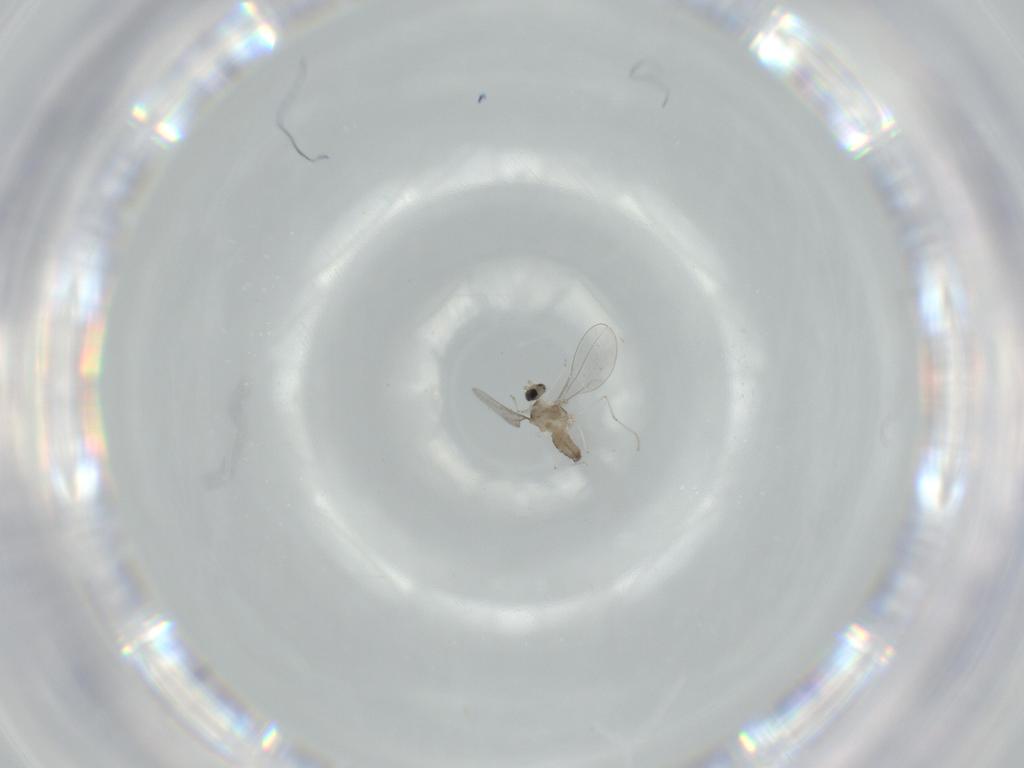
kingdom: Animalia
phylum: Arthropoda
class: Insecta
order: Diptera
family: Cecidomyiidae
